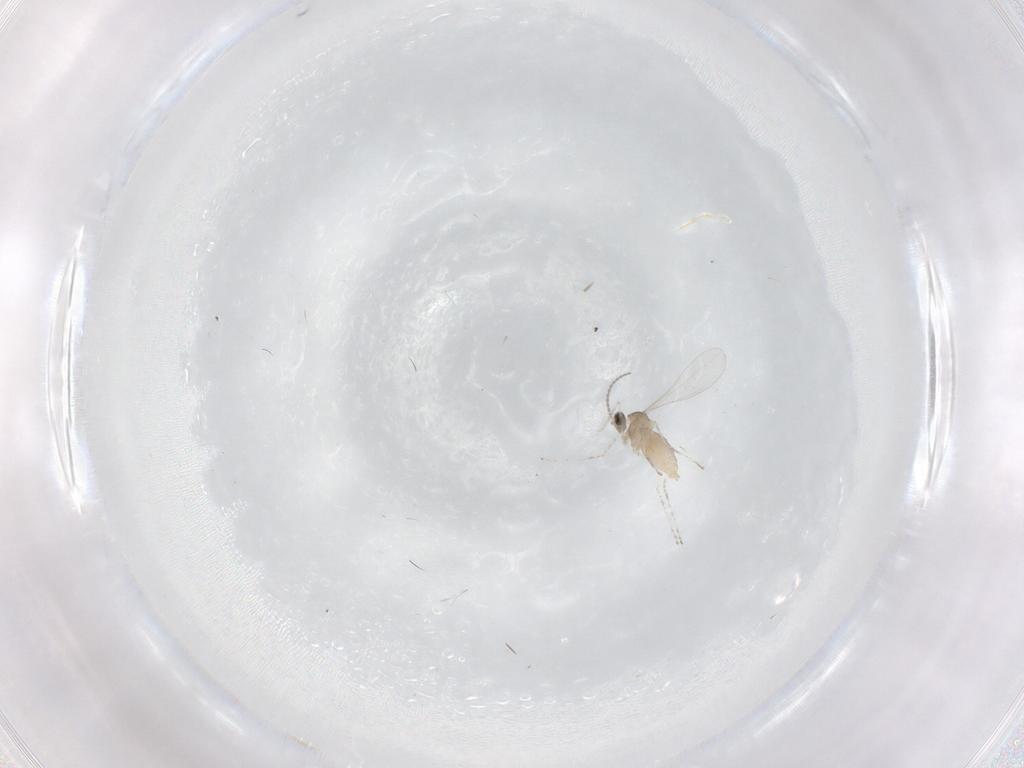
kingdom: Animalia
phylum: Arthropoda
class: Insecta
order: Diptera
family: Cecidomyiidae
